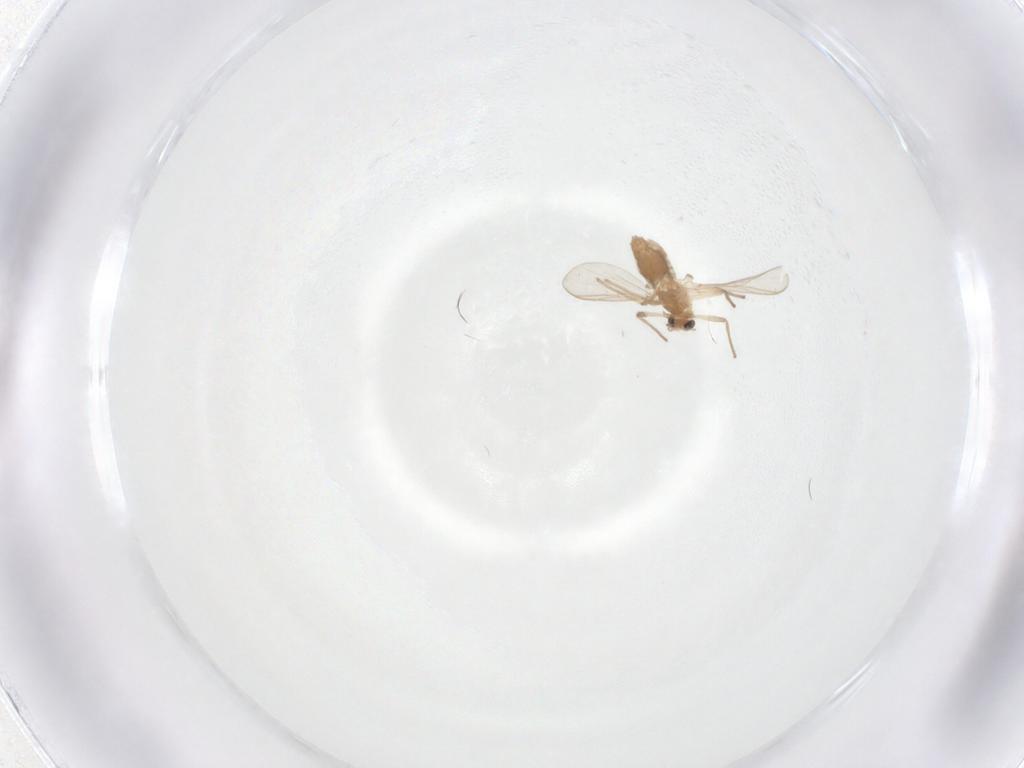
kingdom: Animalia
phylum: Arthropoda
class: Insecta
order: Diptera
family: Chironomidae
